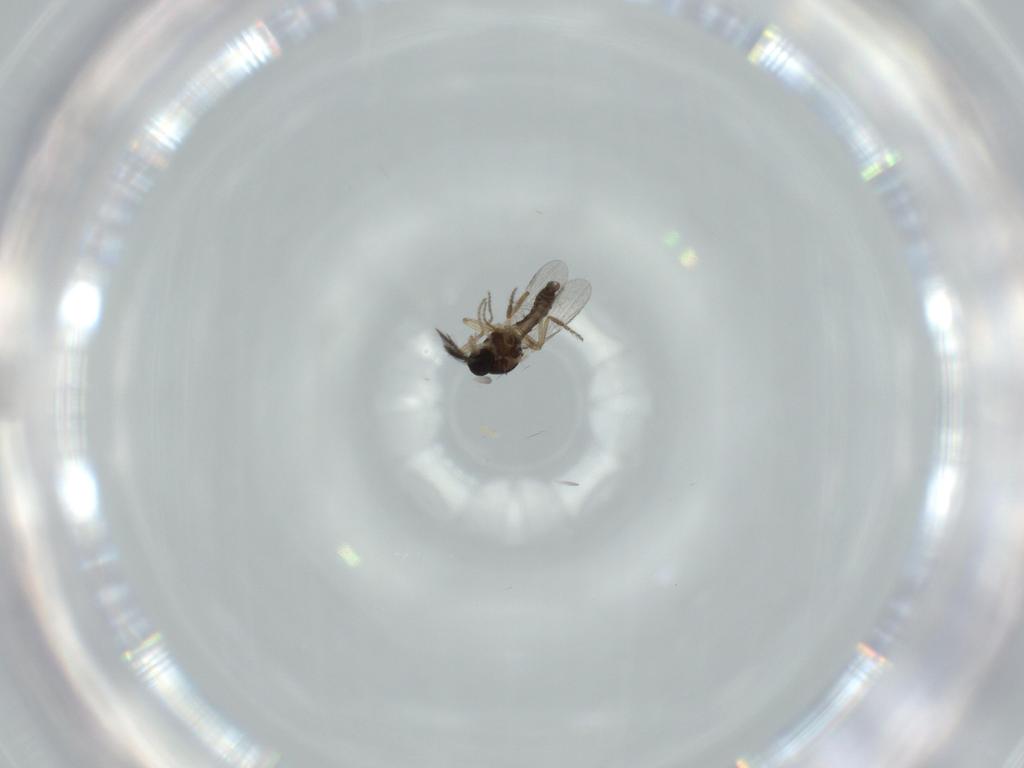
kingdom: Animalia
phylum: Arthropoda
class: Insecta
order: Diptera
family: Ceratopogonidae
